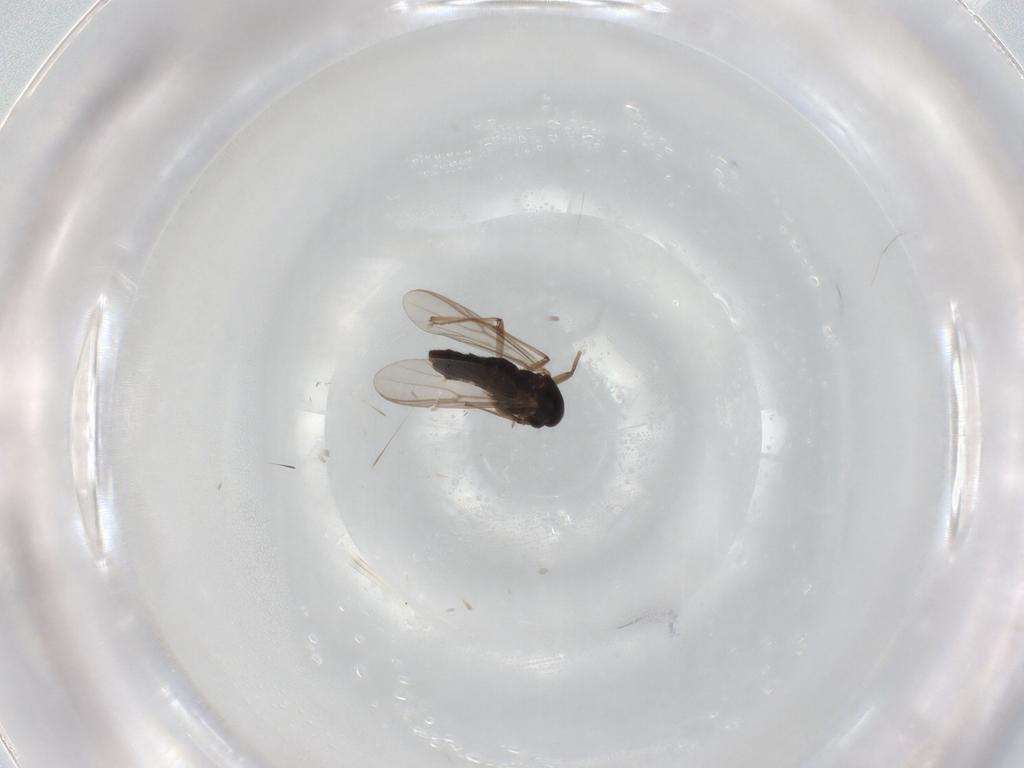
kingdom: Animalia
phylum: Arthropoda
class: Insecta
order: Diptera
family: Chironomidae
